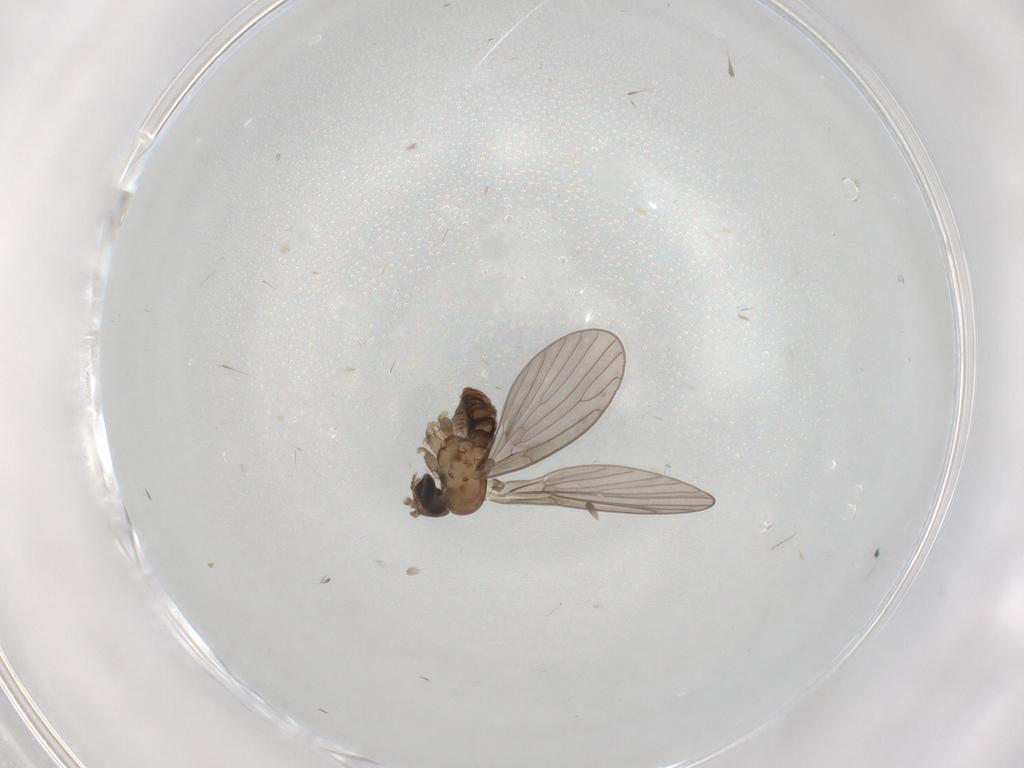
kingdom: Animalia
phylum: Arthropoda
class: Insecta
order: Diptera
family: Psychodidae
